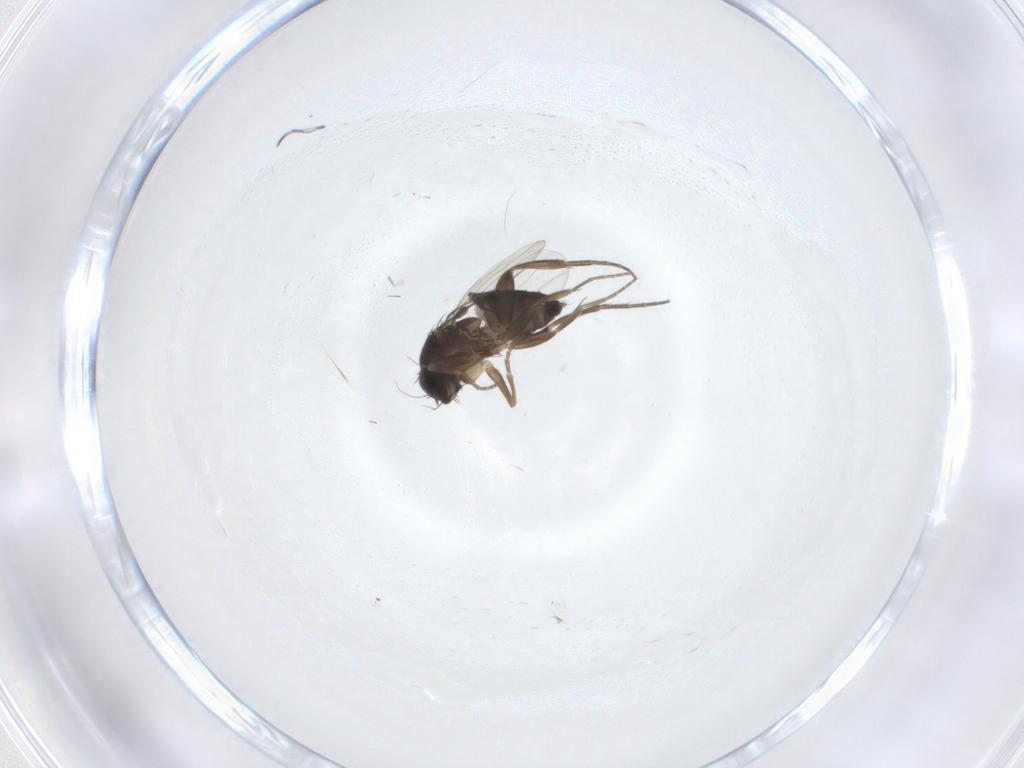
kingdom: Animalia
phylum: Arthropoda
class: Insecta
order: Diptera
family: Phoridae
